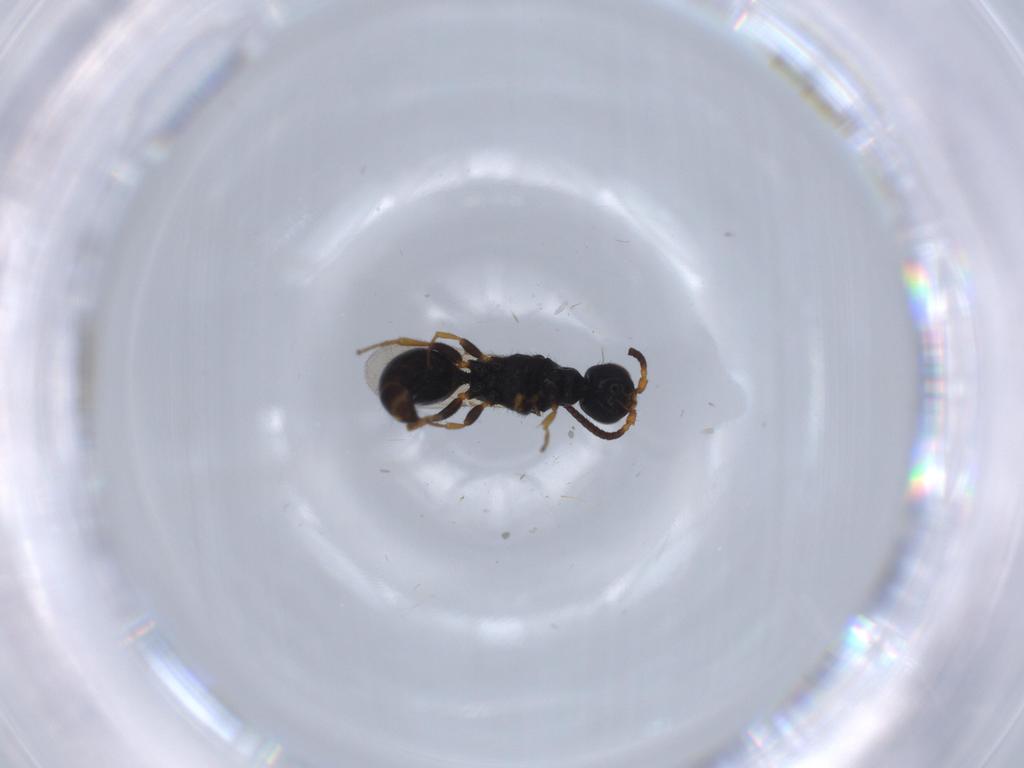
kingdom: Animalia
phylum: Arthropoda
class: Insecta
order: Hymenoptera
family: Bethylidae
